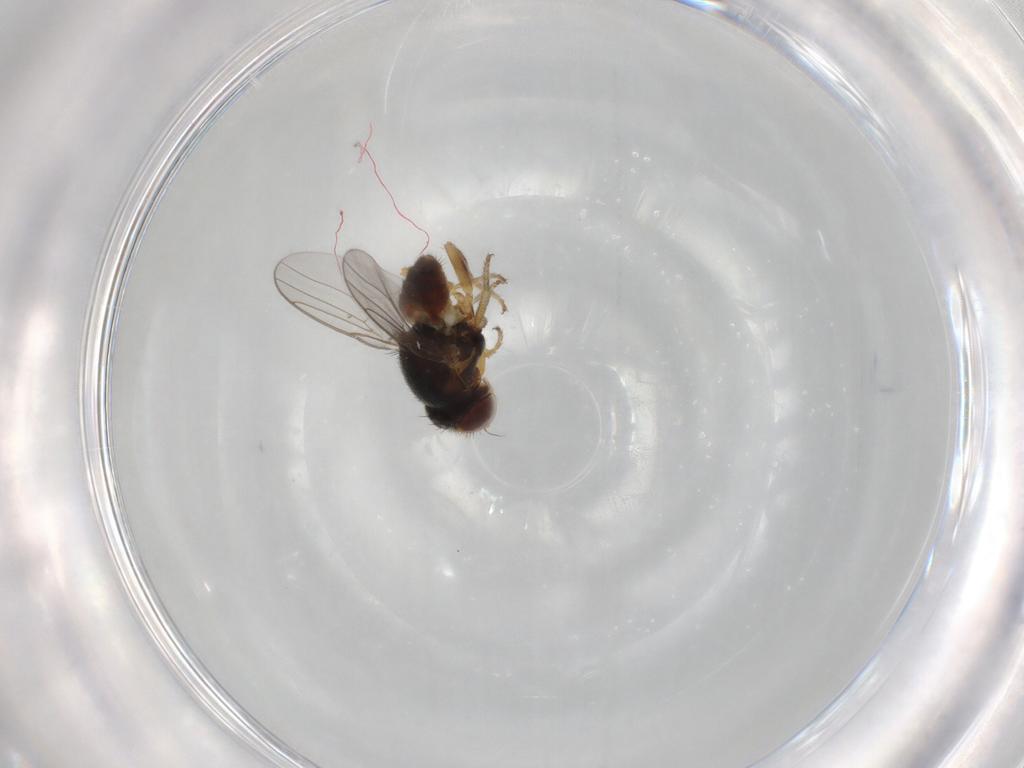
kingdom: Animalia
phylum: Arthropoda
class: Insecta
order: Diptera
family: Chloropidae
